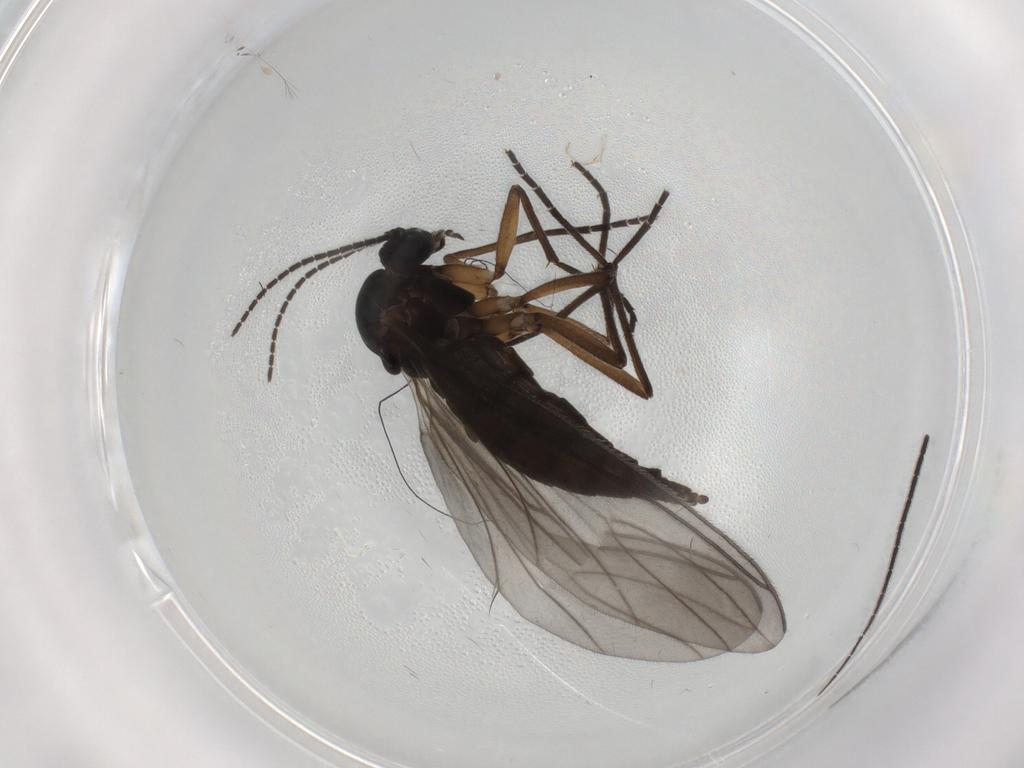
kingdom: Animalia
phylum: Arthropoda
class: Insecta
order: Diptera
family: Sciaridae
